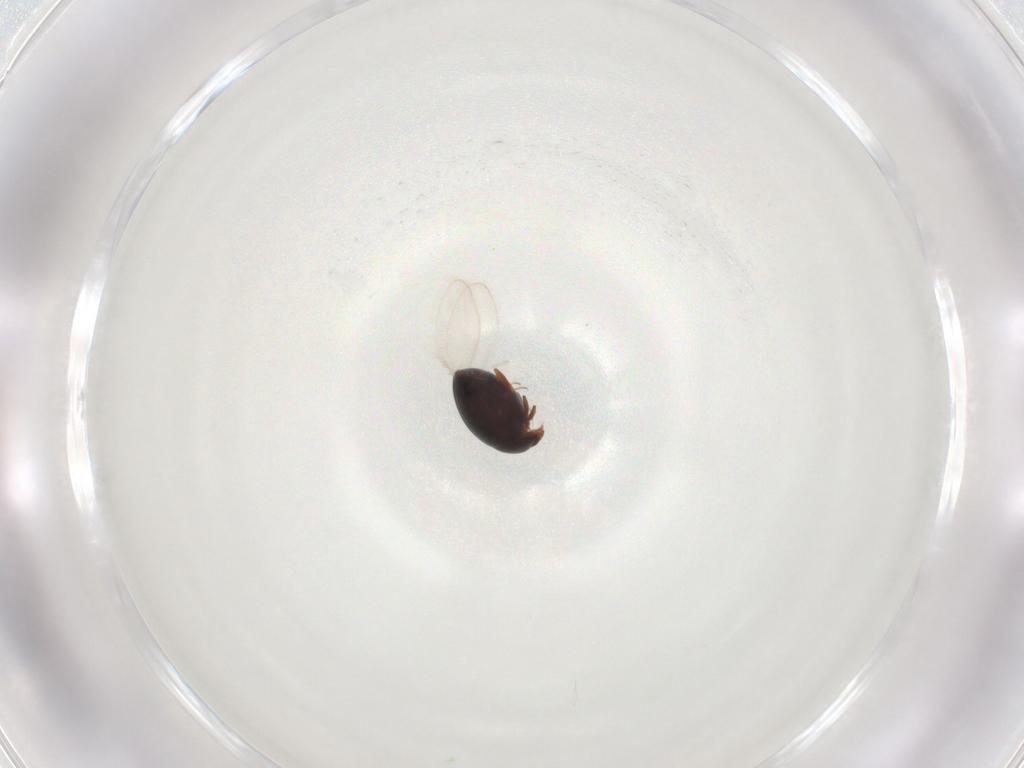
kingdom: Animalia
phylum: Arthropoda
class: Insecta
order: Coleoptera
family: Corylophidae
